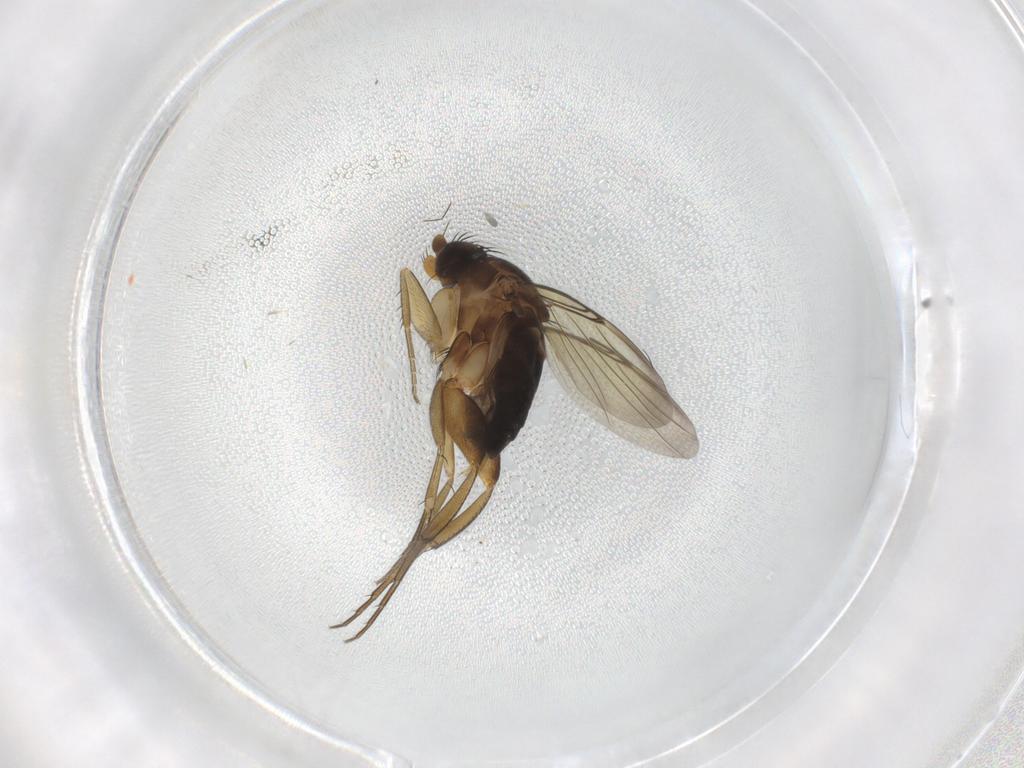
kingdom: Animalia
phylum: Arthropoda
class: Insecta
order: Diptera
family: Phoridae
